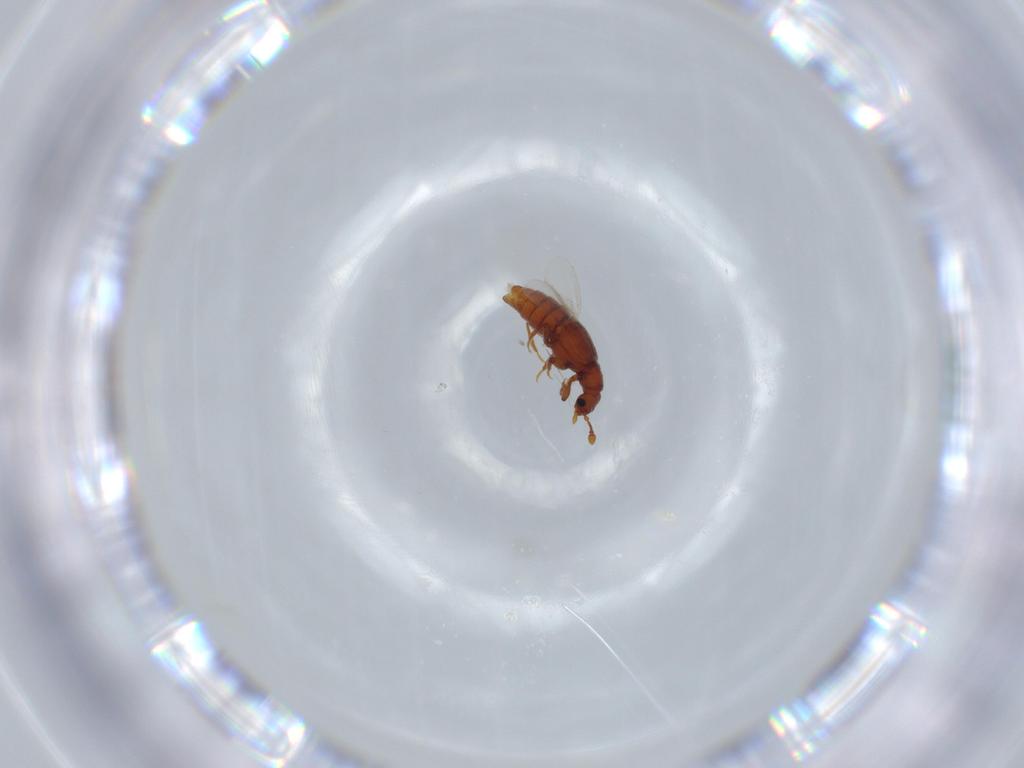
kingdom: Animalia
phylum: Arthropoda
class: Insecta
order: Coleoptera
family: Staphylinidae
